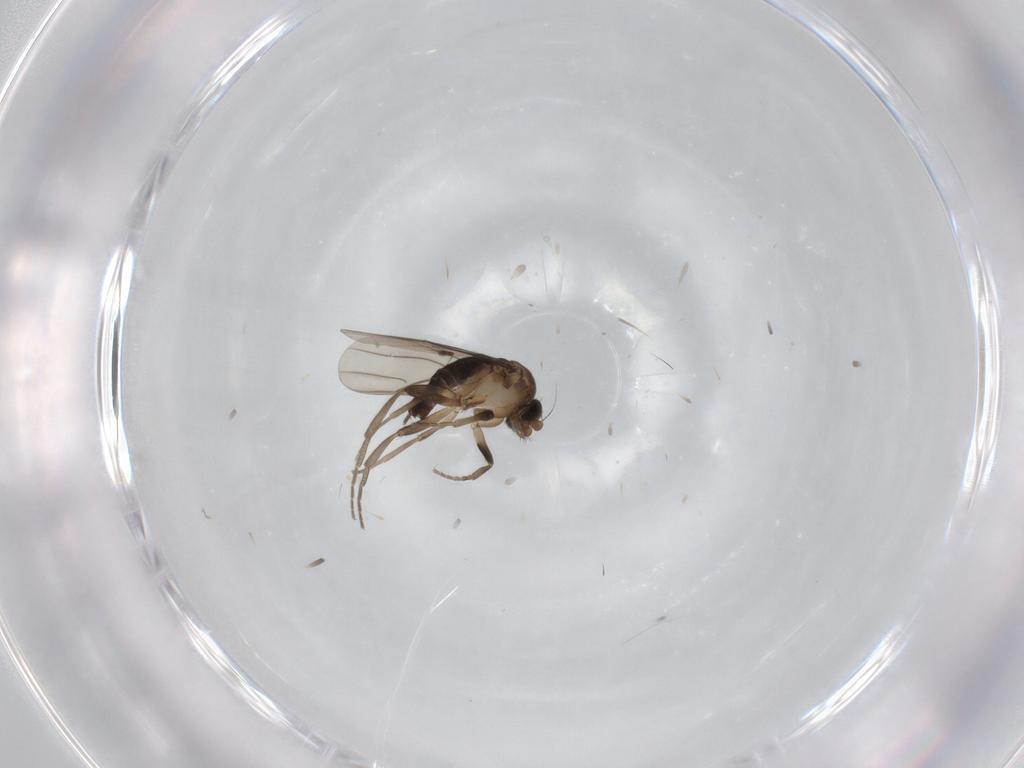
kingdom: Animalia
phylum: Arthropoda
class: Insecta
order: Diptera
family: Phoridae
